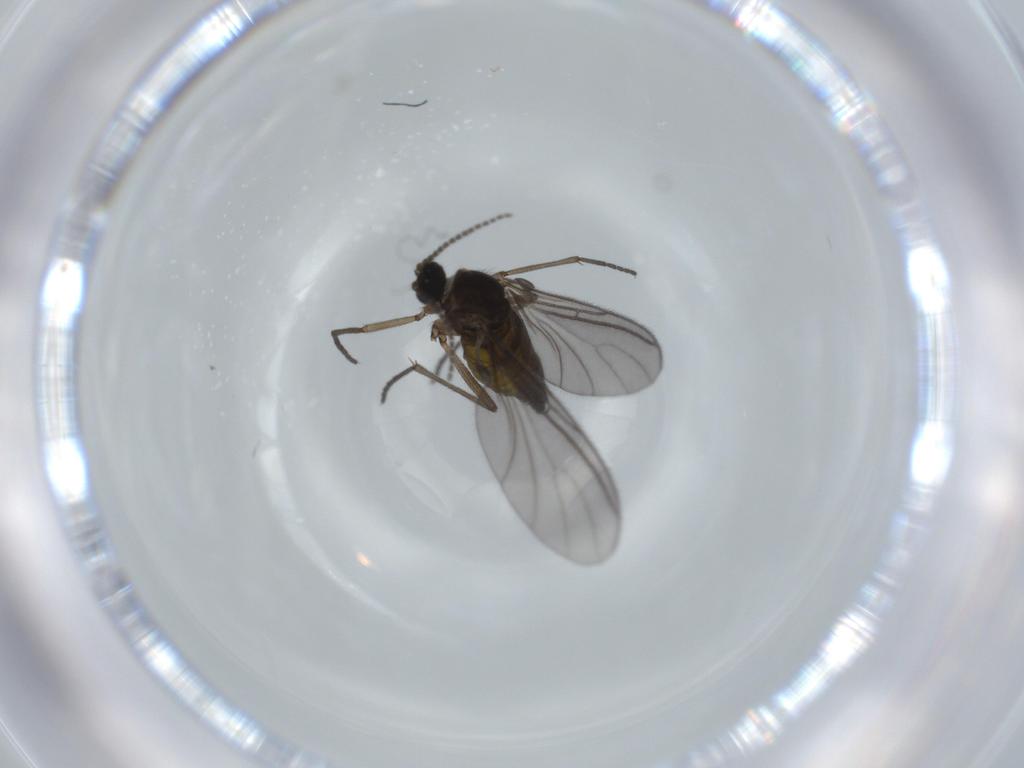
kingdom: Animalia
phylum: Arthropoda
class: Insecta
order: Diptera
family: Sciaridae
